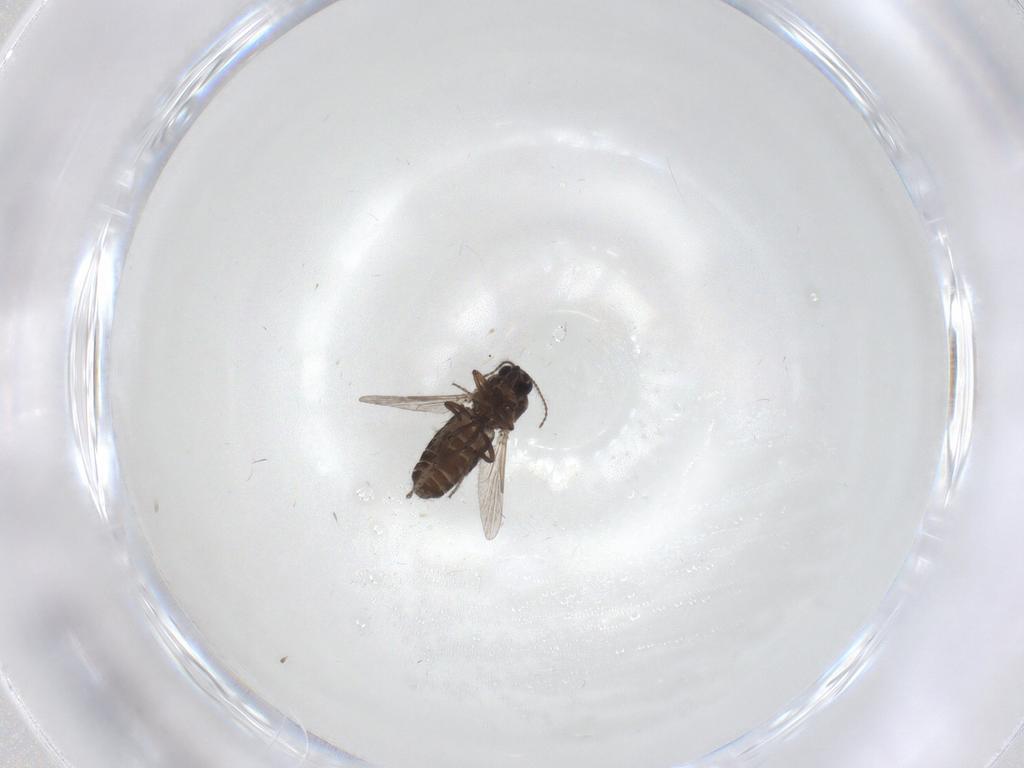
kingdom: Animalia
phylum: Arthropoda
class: Insecta
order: Diptera
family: Ceratopogonidae
